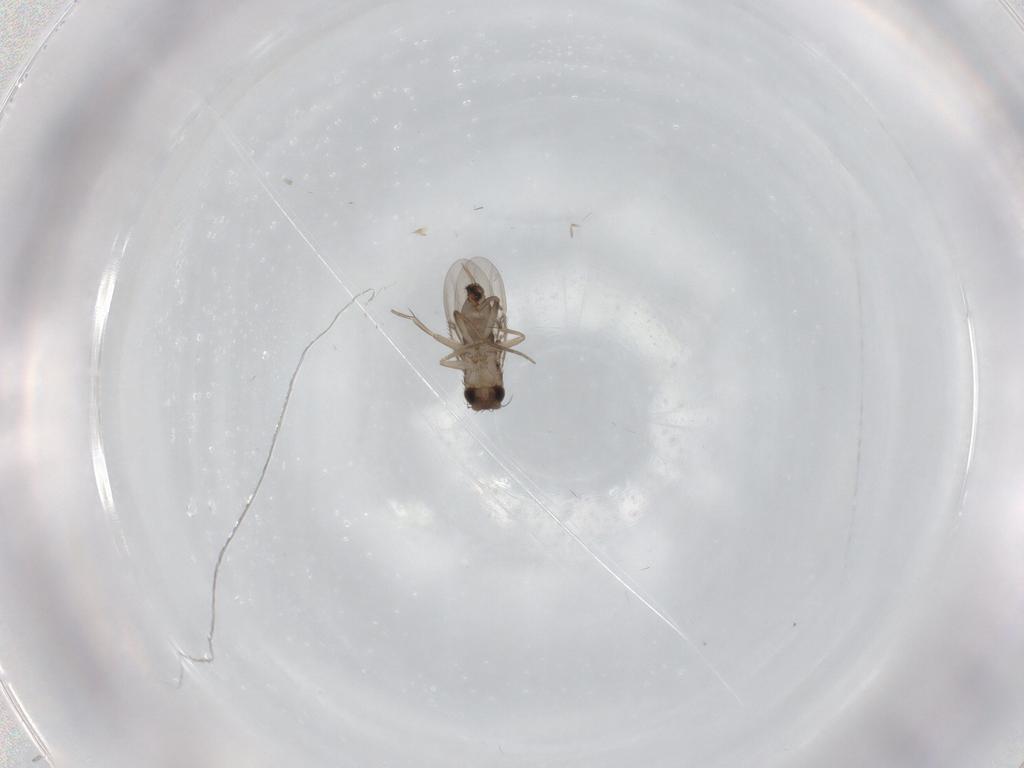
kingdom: Animalia
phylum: Arthropoda
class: Insecta
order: Diptera
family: Phoridae
